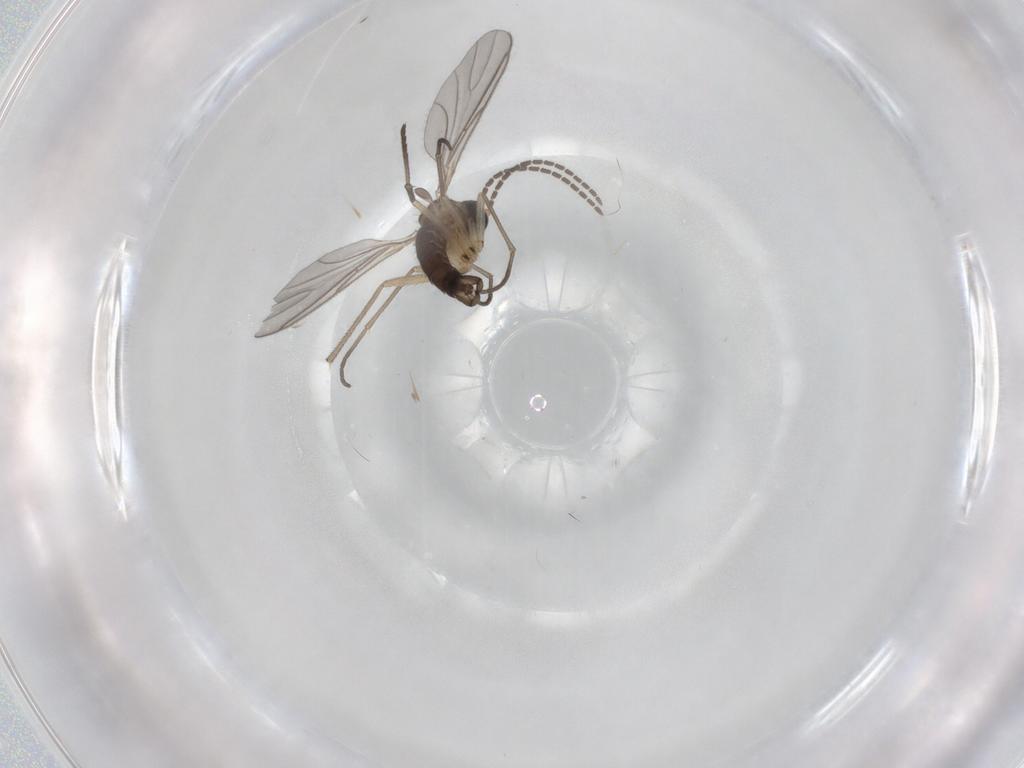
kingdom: Animalia
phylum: Arthropoda
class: Insecta
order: Diptera
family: Sciaridae
